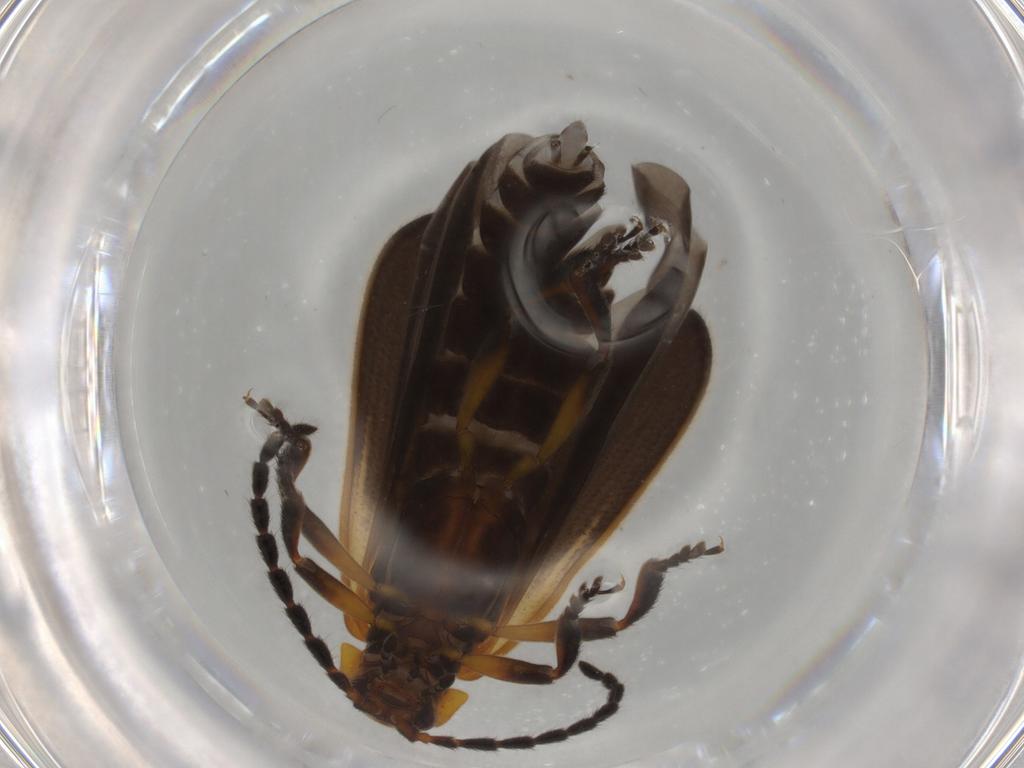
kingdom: Animalia
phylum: Arthropoda
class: Insecta
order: Coleoptera
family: Lycidae
